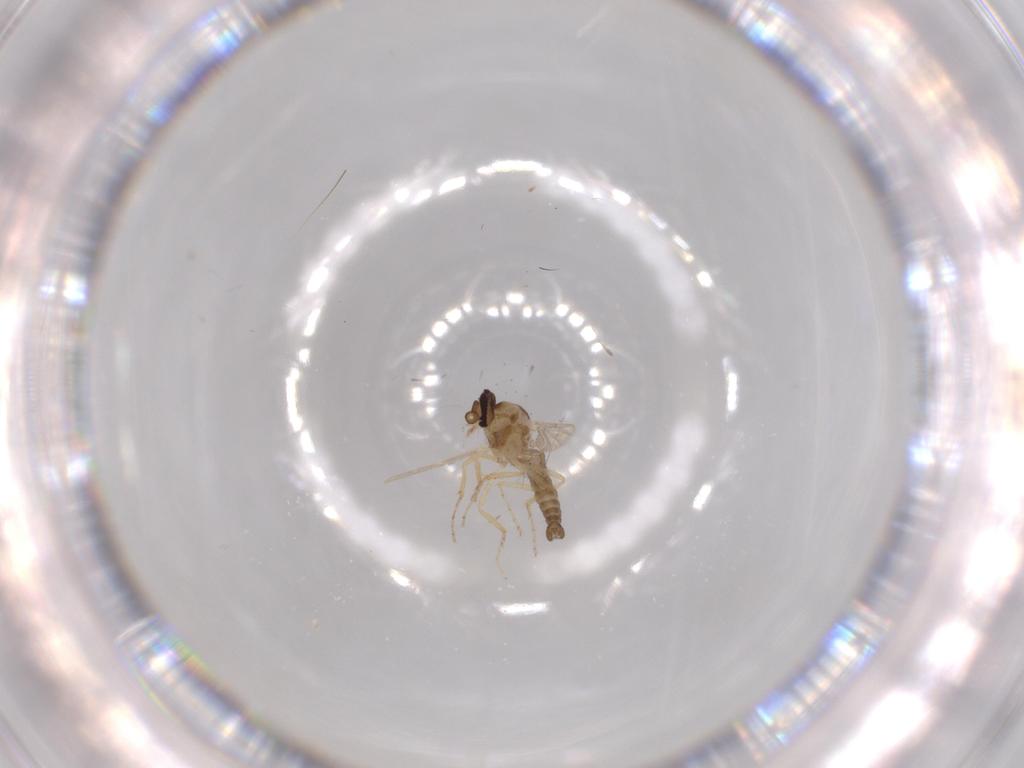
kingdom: Animalia
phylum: Arthropoda
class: Insecta
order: Diptera
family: Ceratopogonidae
